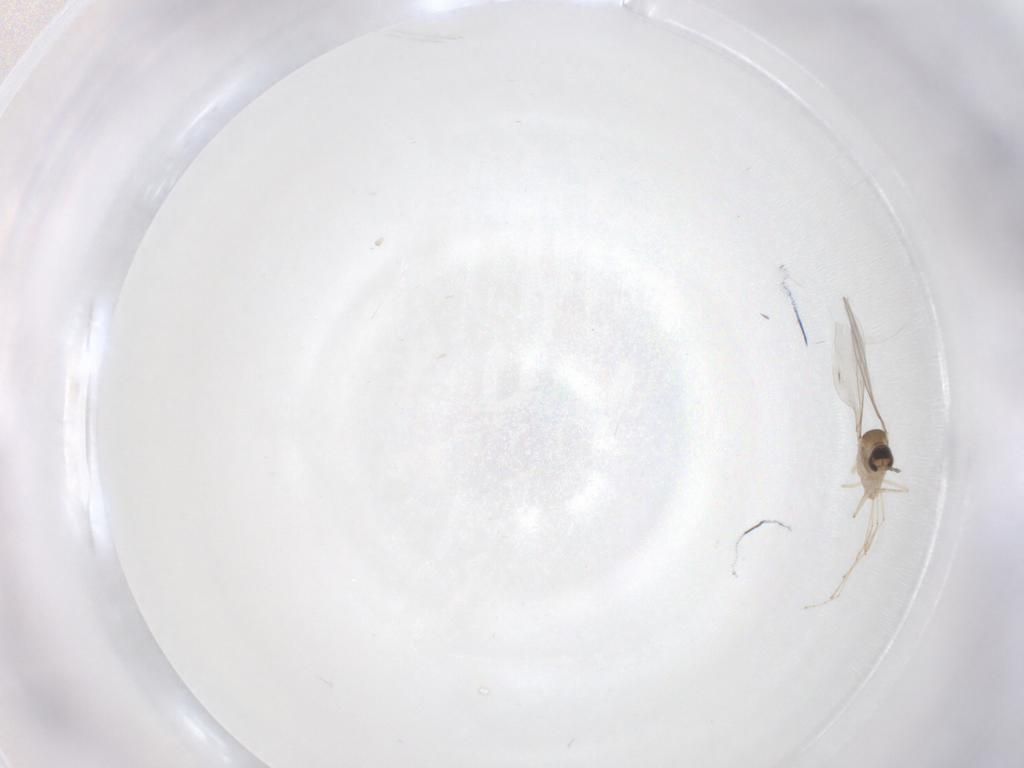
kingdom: Animalia
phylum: Arthropoda
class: Insecta
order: Diptera
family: Cecidomyiidae
